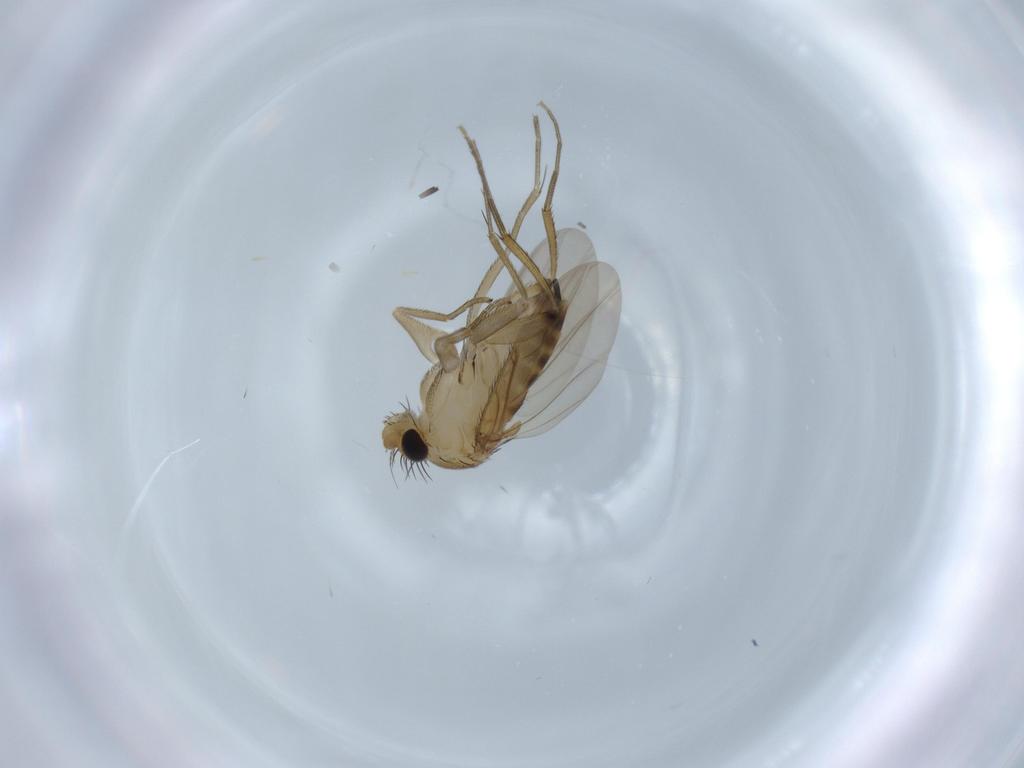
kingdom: Animalia
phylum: Arthropoda
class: Insecta
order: Diptera
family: Phoridae
